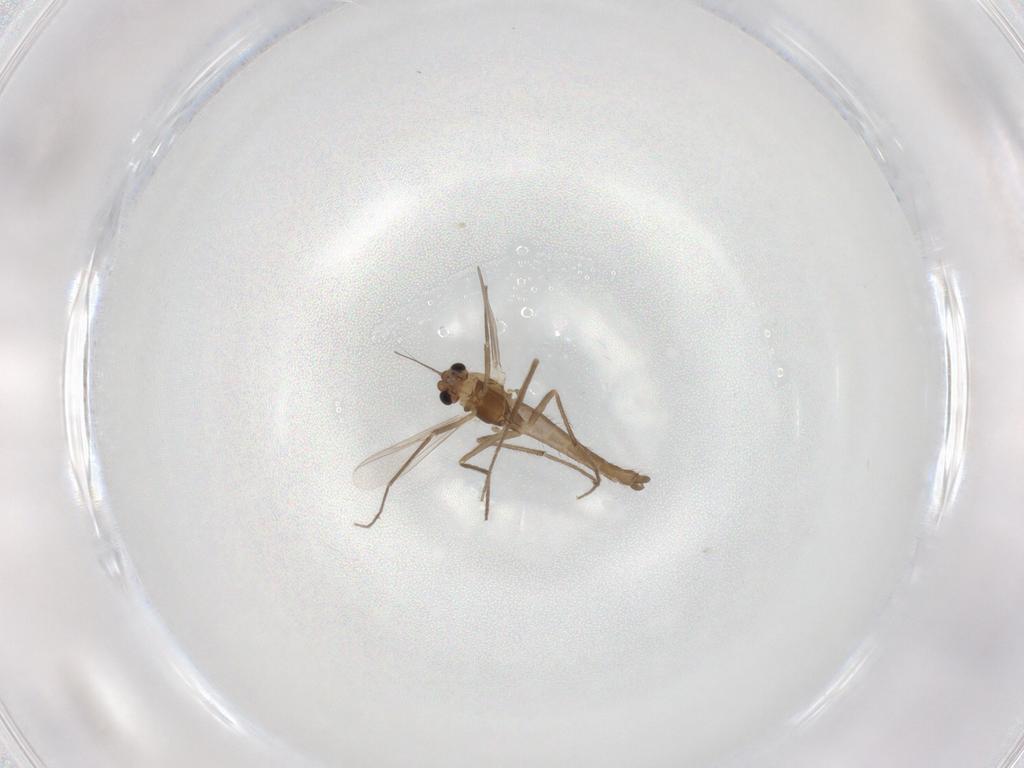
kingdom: Animalia
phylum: Arthropoda
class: Insecta
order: Diptera
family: Chironomidae
